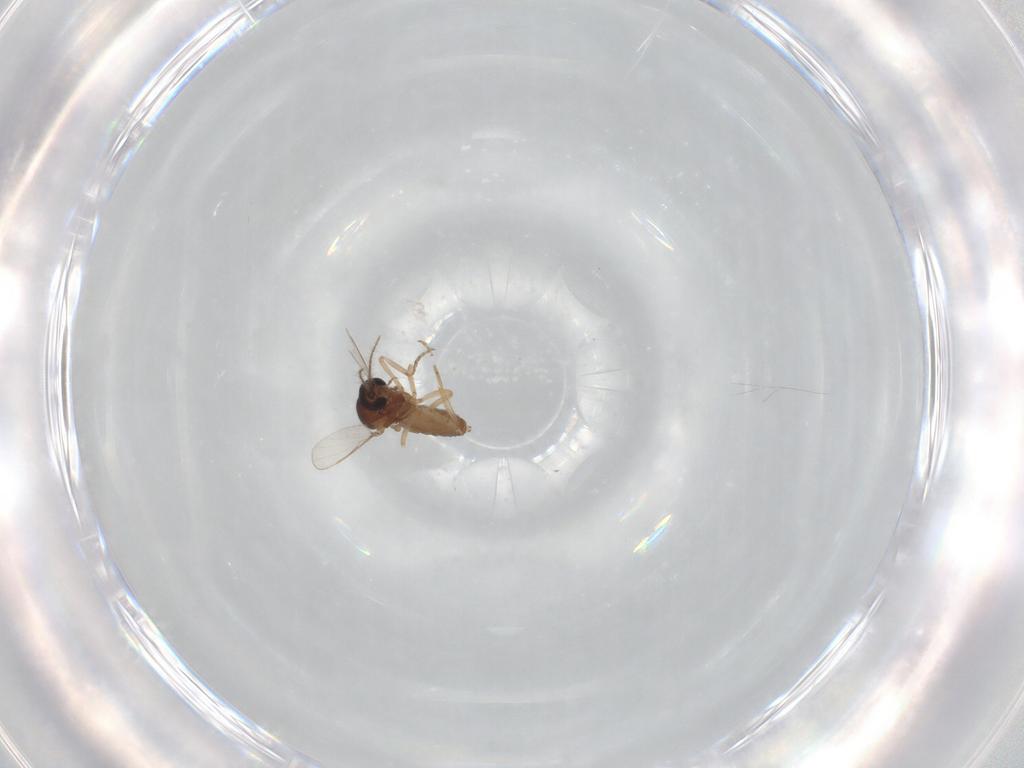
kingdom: Animalia
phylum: Arthropoda
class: Insecta
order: Diptera
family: Ceratopogonidae
